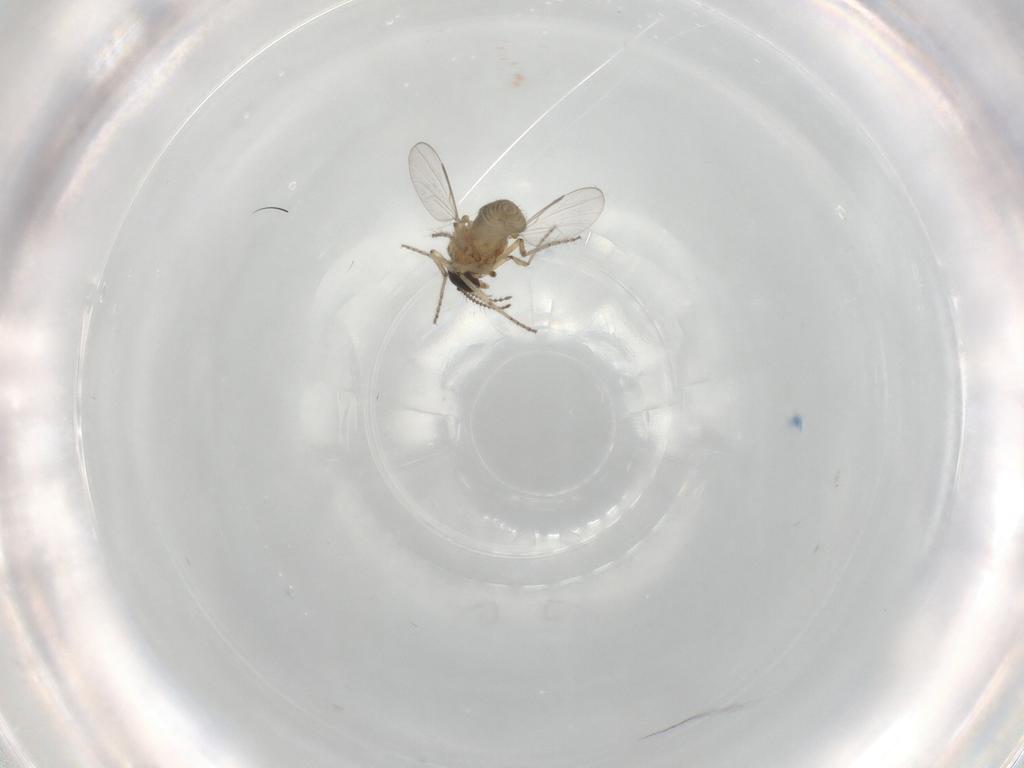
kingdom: Animalia
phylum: Arthropoda
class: Insecta
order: Diptera
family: Ceratopogonidae
